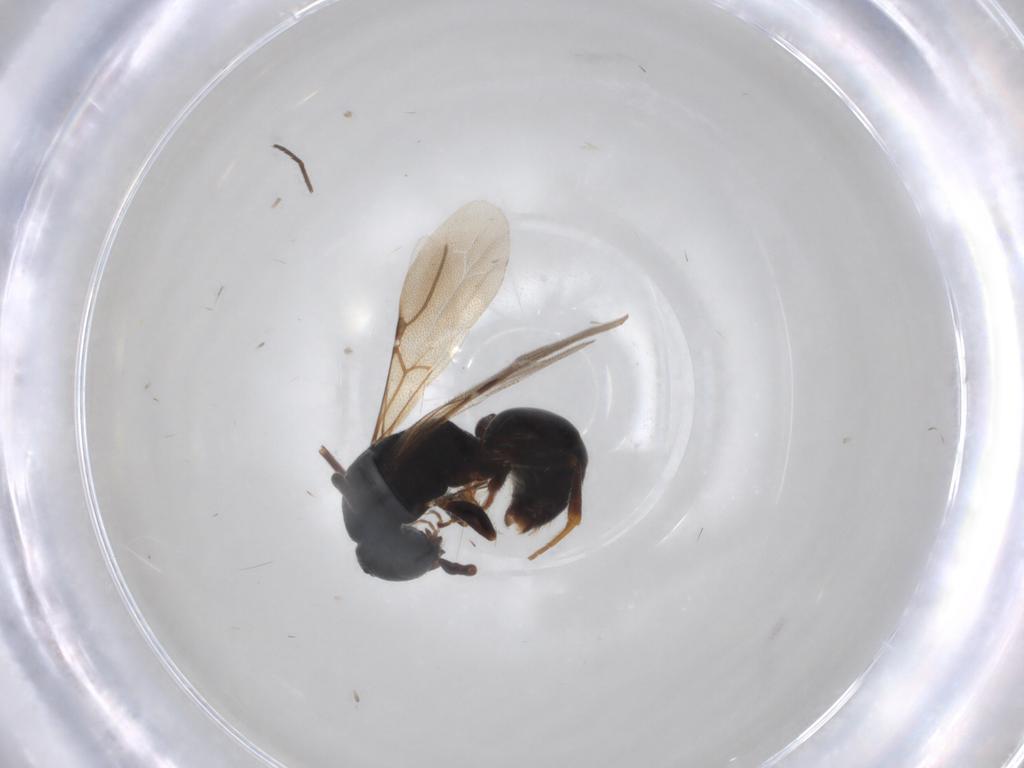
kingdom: Animalia
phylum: Arthropoda
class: Insecta
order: Hymenoptera
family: Bethylidae
